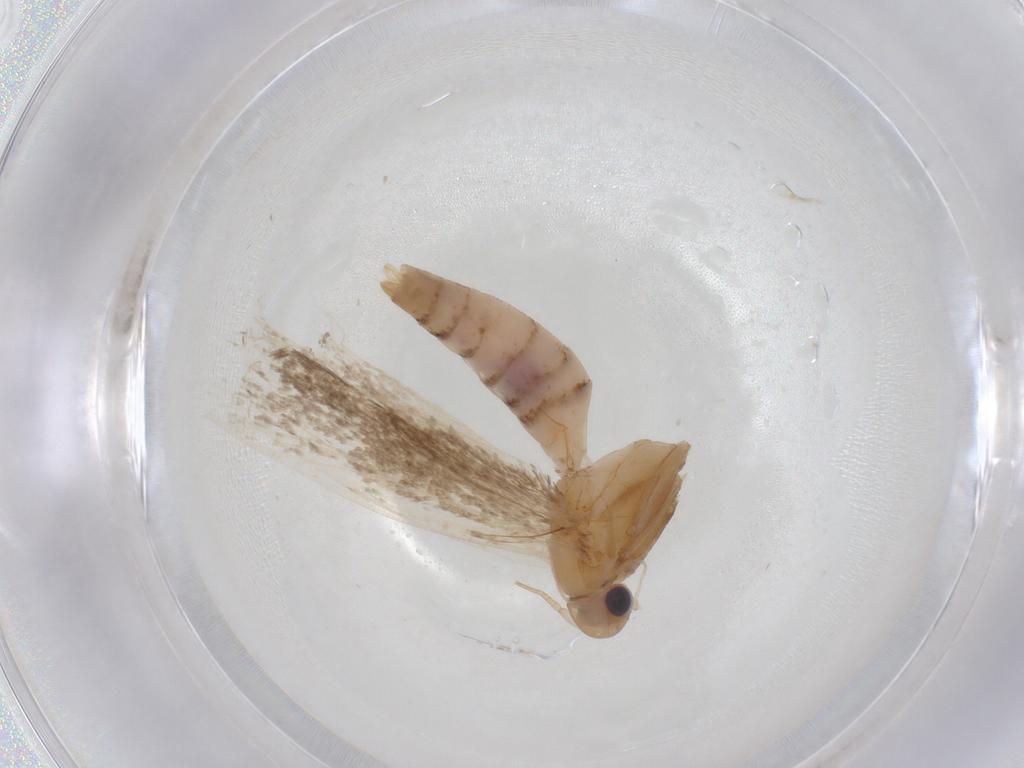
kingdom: Animalia
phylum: Arthropoda
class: Insecta
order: Lepidoptera
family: Depressariidae
